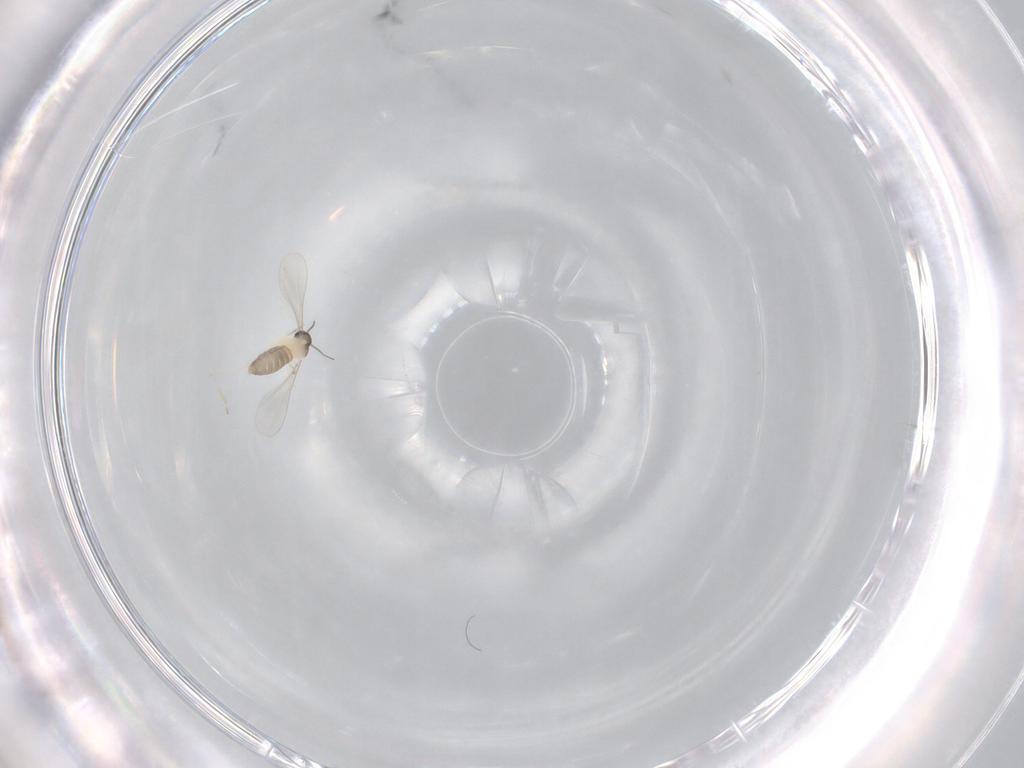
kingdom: Animalia
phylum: Arthropoda
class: Insecta
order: Diptera
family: Cecidomyiidae
